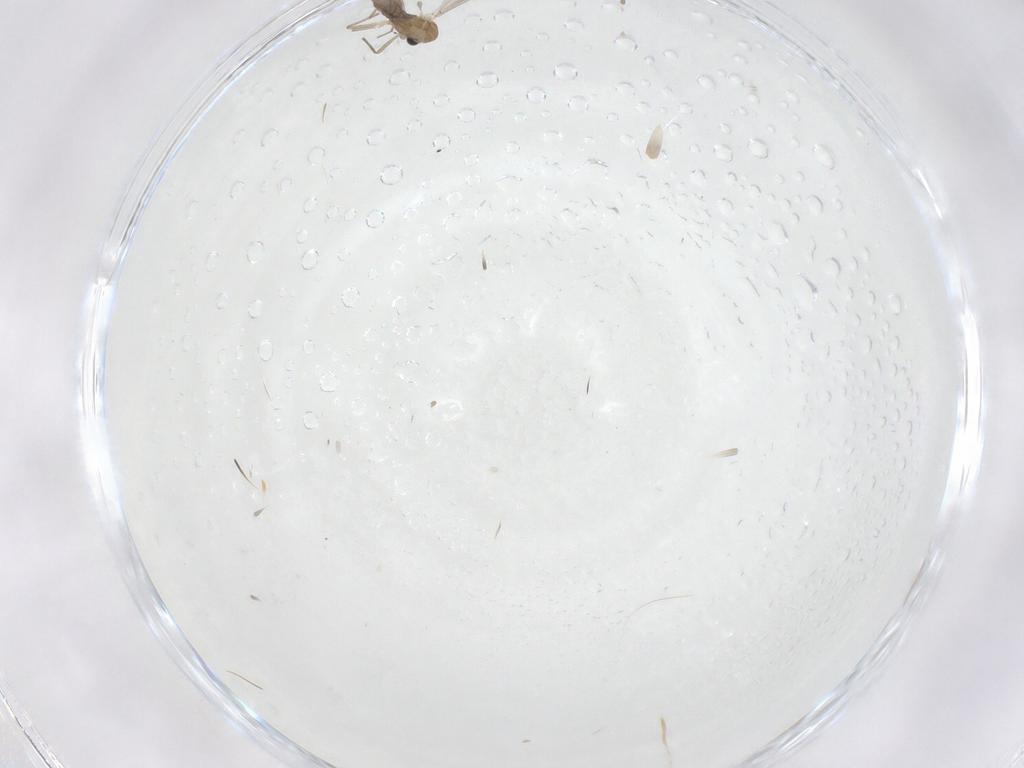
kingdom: Animalia
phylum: Arthropoda
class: Insecta
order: Diptera
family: Chironomidae
